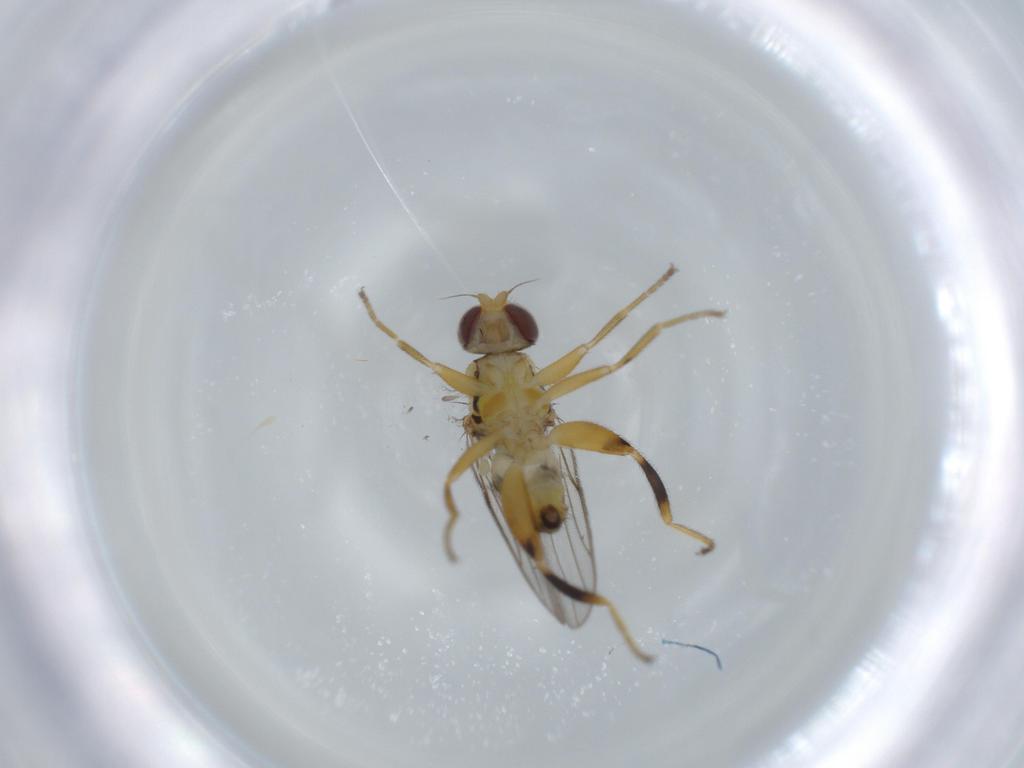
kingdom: Animalia
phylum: Arthropoda
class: Insecta
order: Diptera
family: Chloropidae
